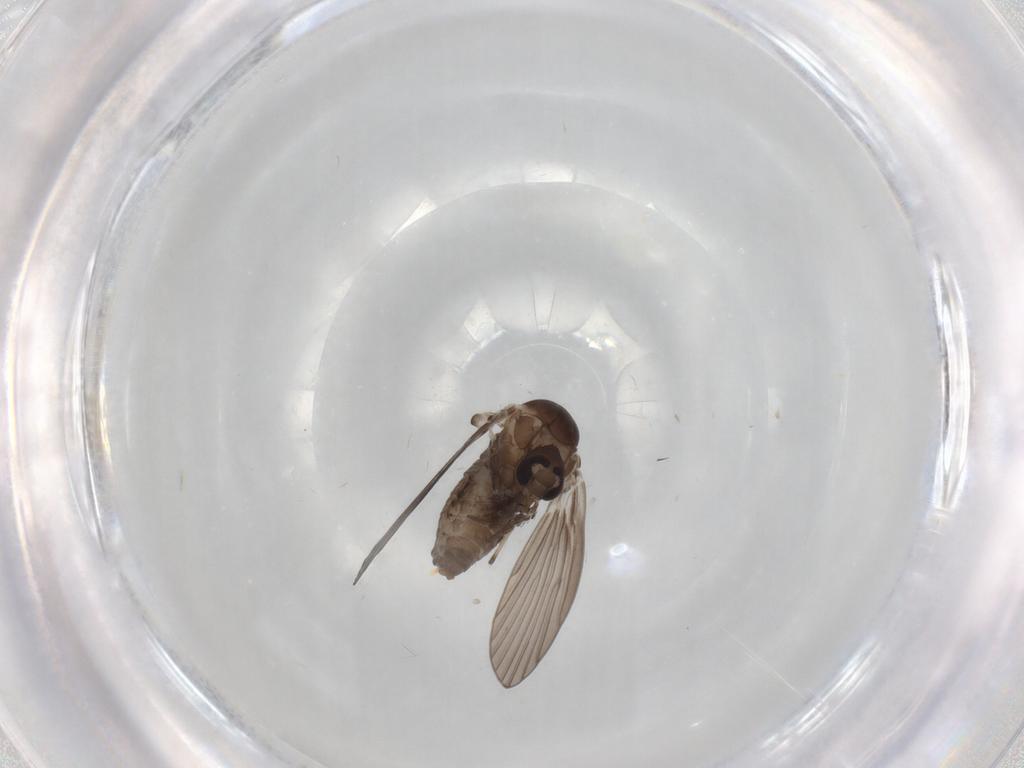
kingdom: Animalia
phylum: Arthropoda
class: Insecta
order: Diptera
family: Psychodidae
